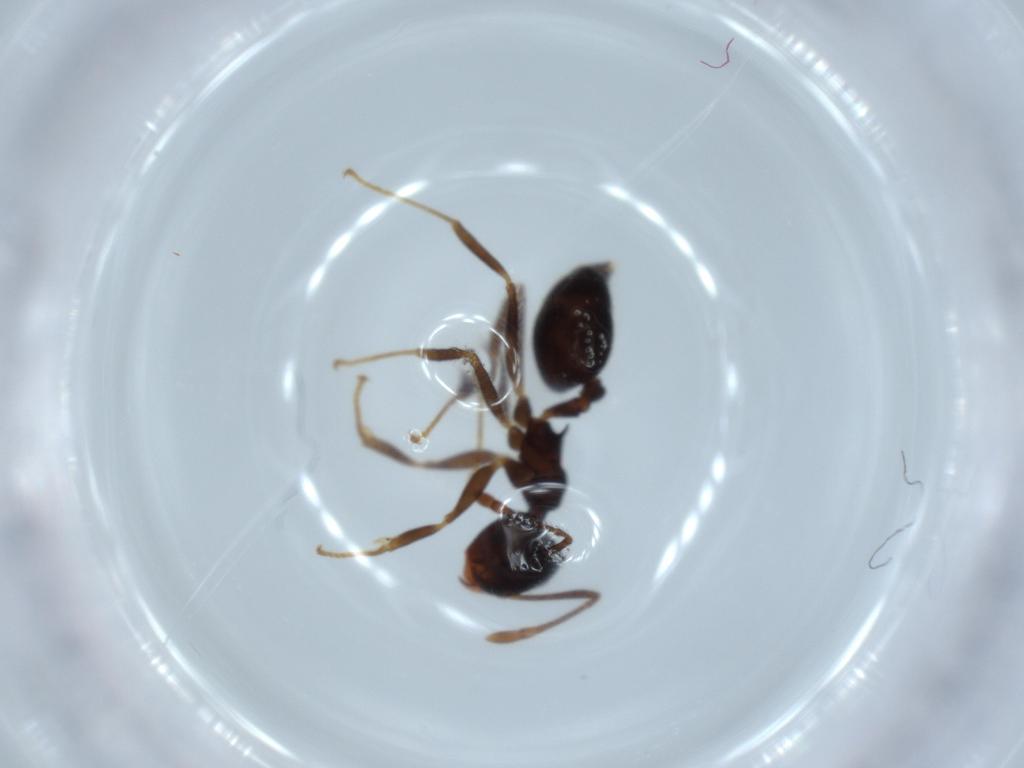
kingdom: Animalia
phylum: Arthropoda
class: Insecta
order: Hymenoptera
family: Formicidae
